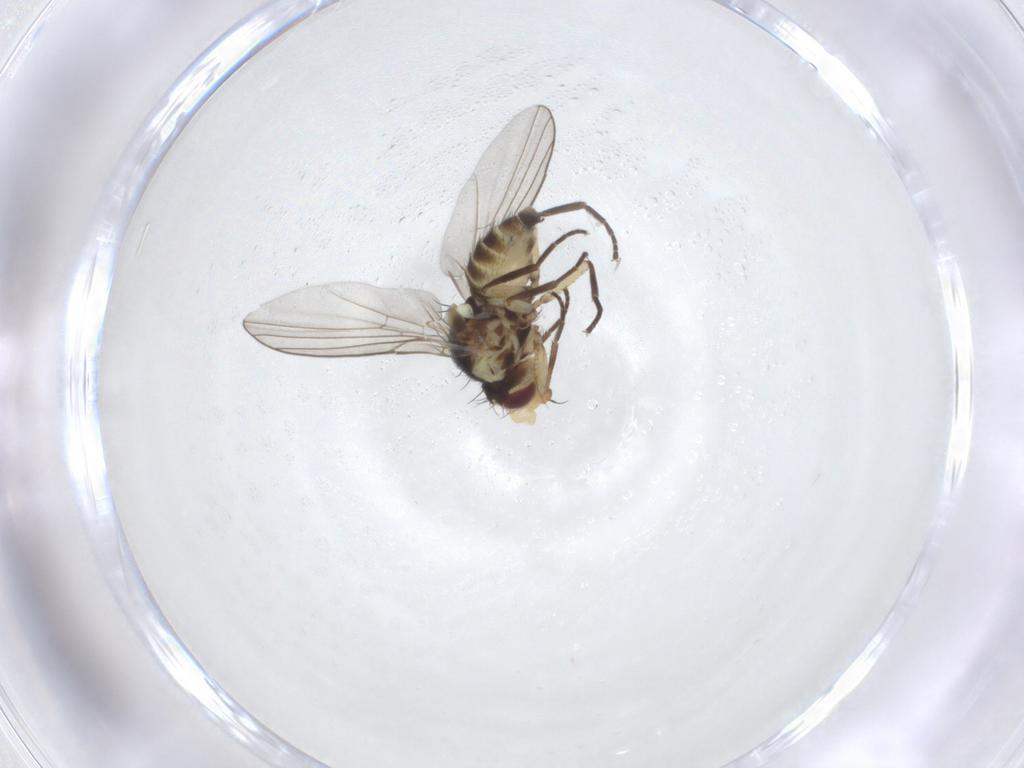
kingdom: Animalia
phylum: Arthropoda
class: Insecta
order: Diptera
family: Agromyzidae
